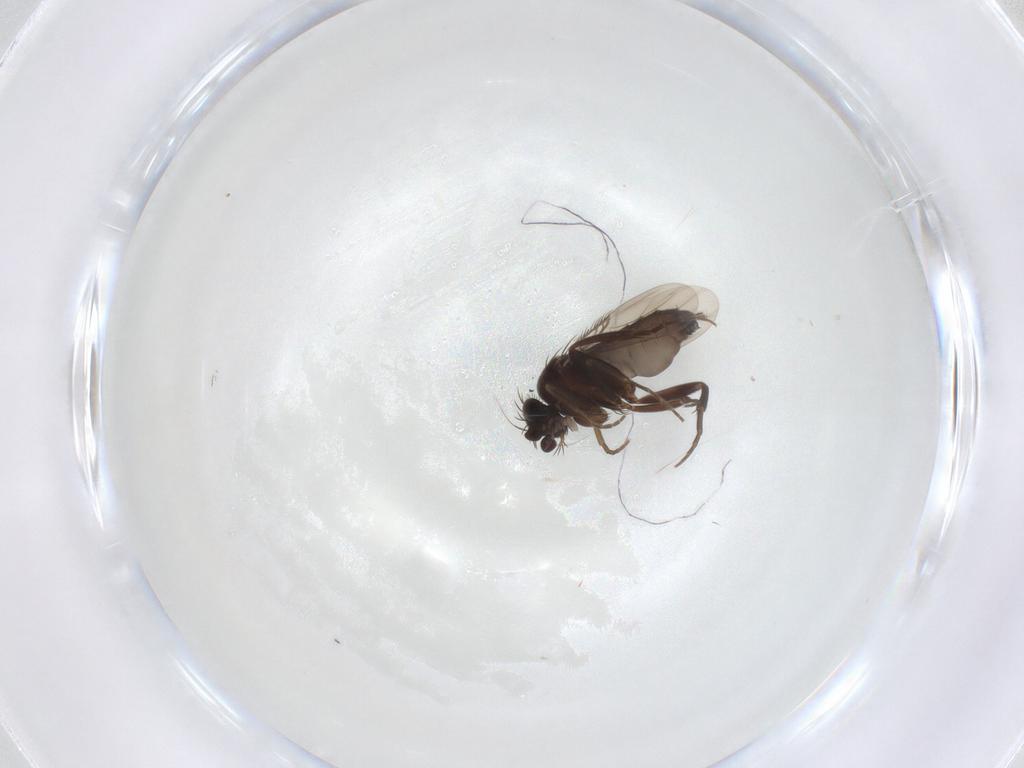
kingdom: Animalia
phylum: Arthropoda
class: Insecta
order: Diptera
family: Phoridae
